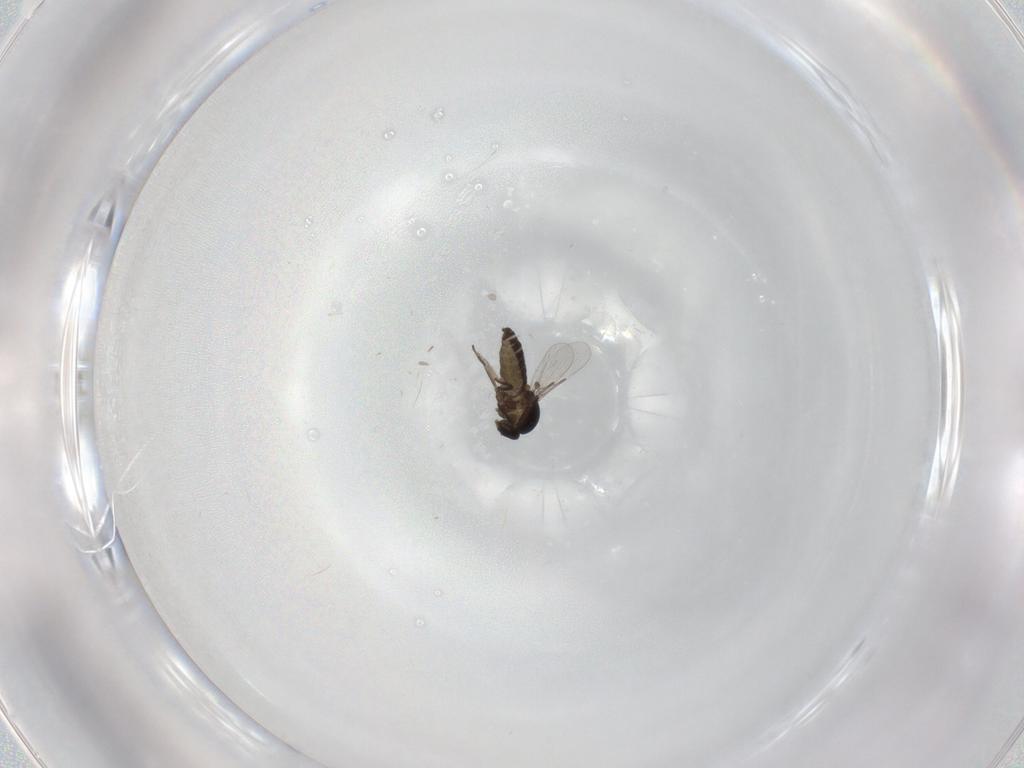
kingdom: Animalia
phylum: Arthropoda
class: Insecta
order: Diptera
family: Ceratopogonidae
